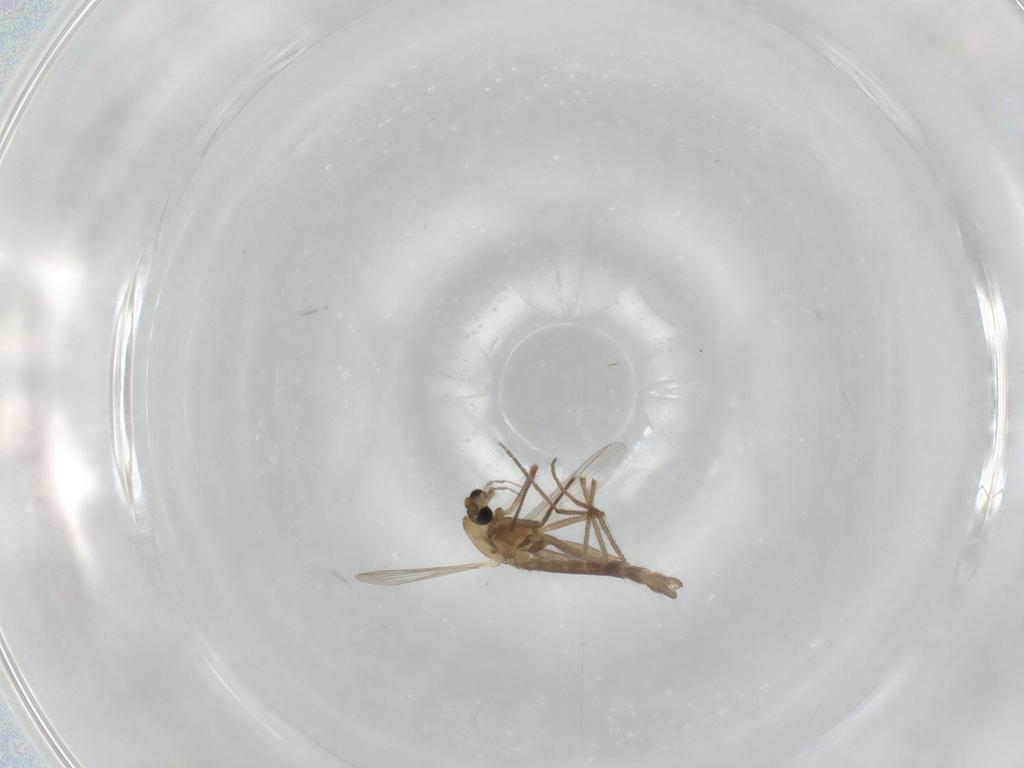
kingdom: Animalia
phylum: Arthropoda
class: Insecta
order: Diptera
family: Chironomidae
